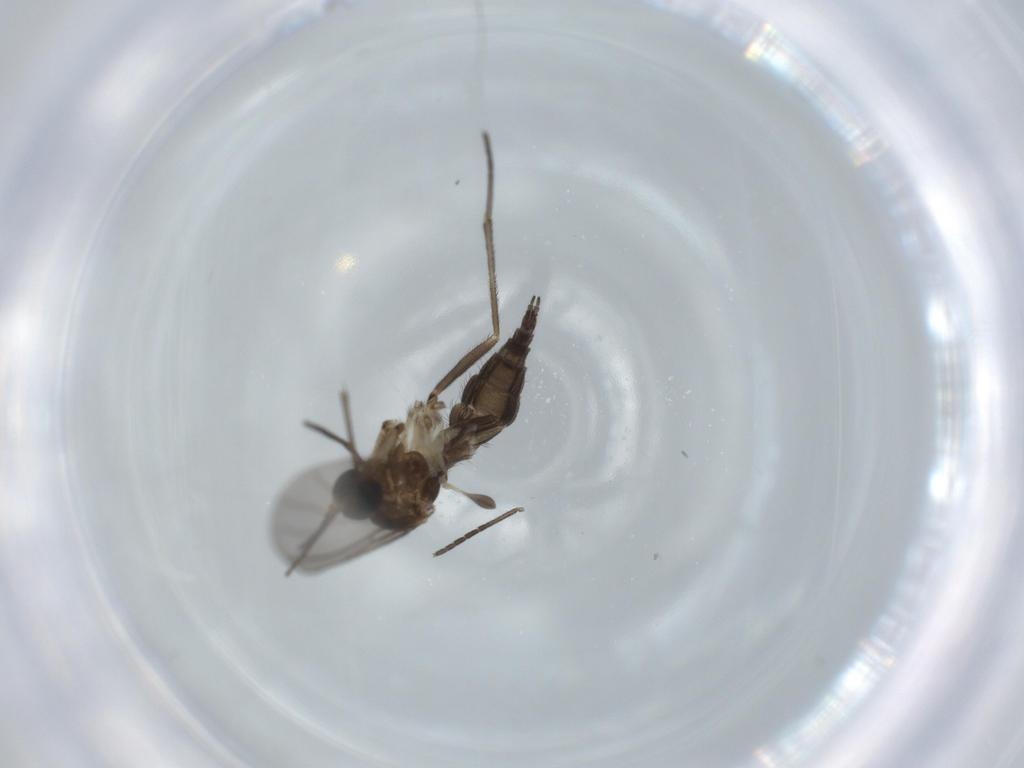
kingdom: Animalia
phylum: Arthropoda
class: Insecta
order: Diptera
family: Sciaridae
